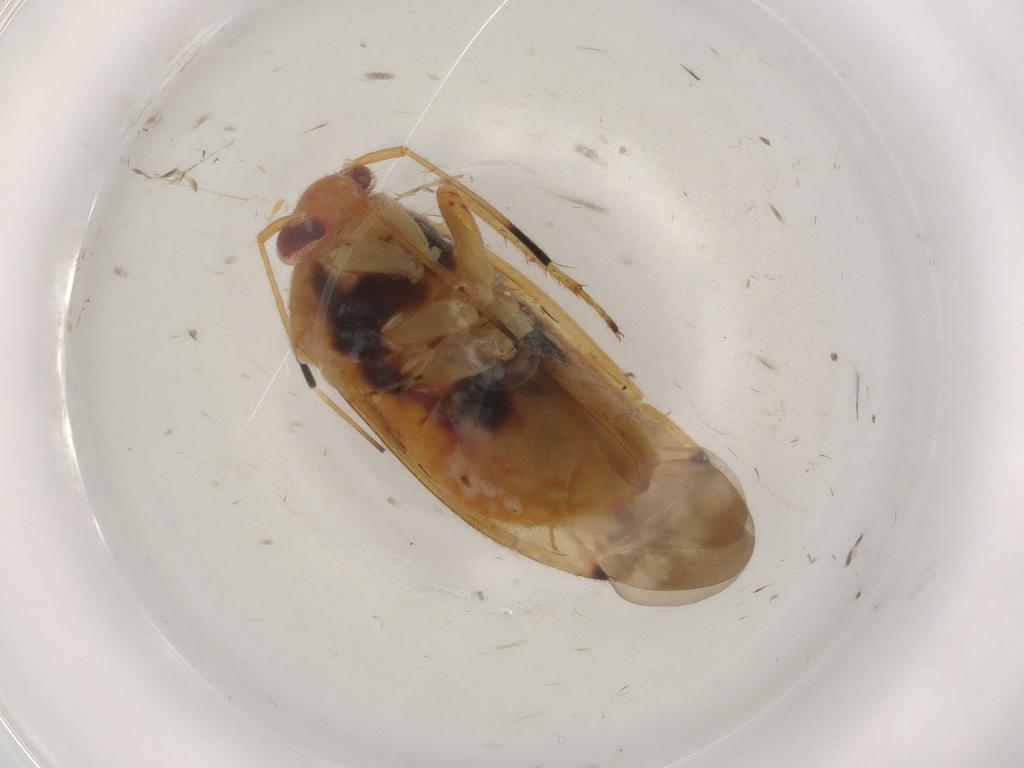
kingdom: Animalia
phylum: Arthropoda
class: Insecta
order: Hemiptera
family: Miridae
